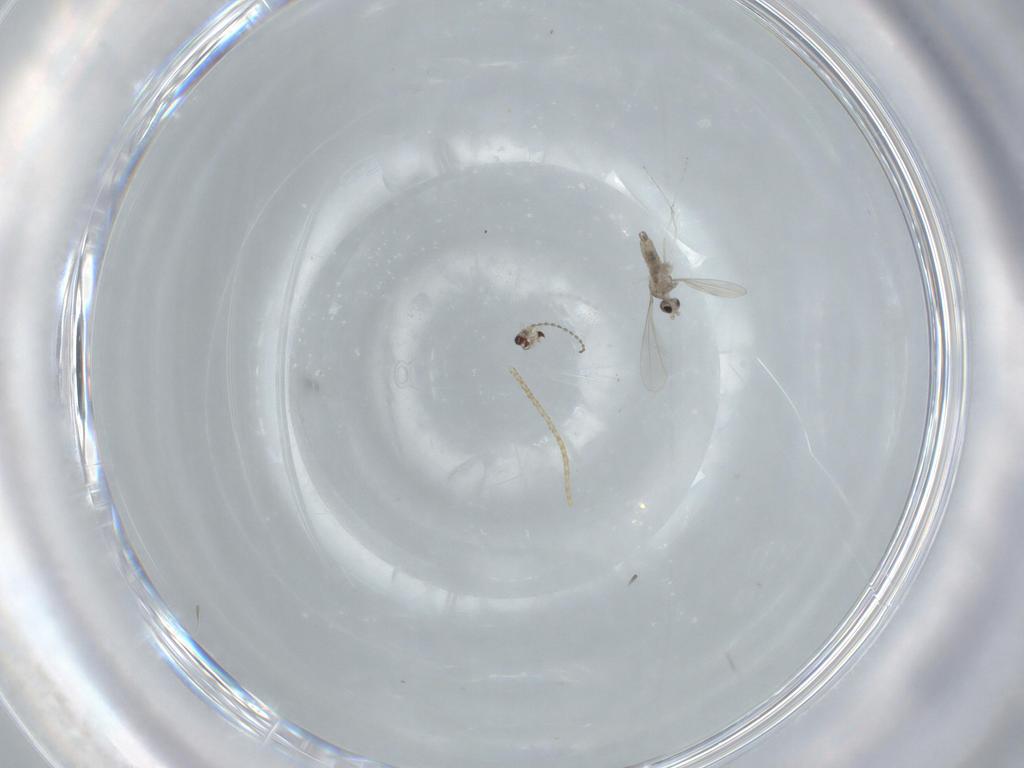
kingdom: Animalia
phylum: Arthropoda
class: Insecta
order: Diptera
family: Cecidomyiidae
